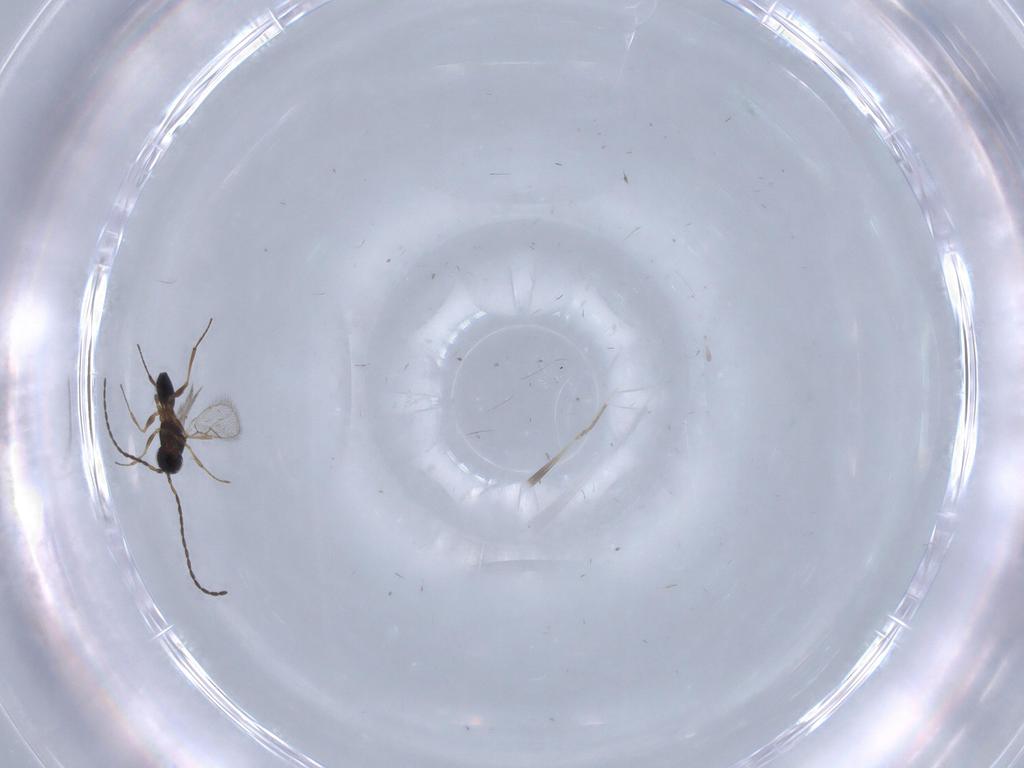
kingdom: Animalia
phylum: Arthropoda
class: Insecta
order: Hymenoptera
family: Figitidae
